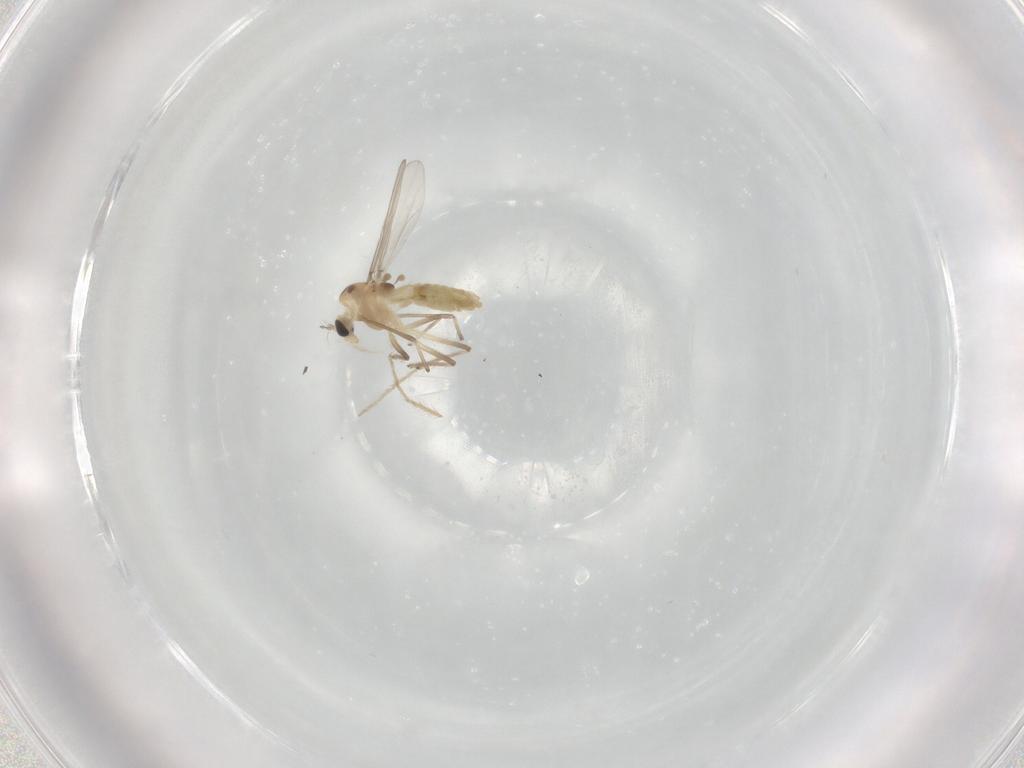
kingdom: Animalia
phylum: Arthropoda
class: Insecta
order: Diptera
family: Chironomidae
